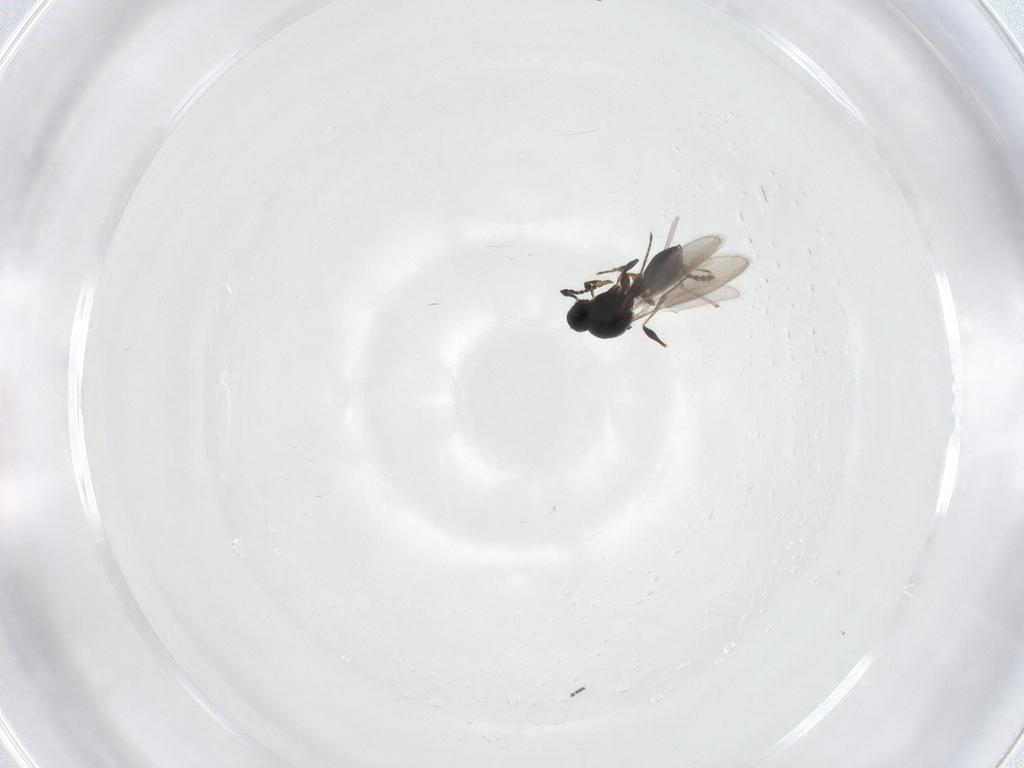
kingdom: Animalia
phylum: Arthropoda
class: Insecta
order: Hymenoptera
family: Platygastridae
